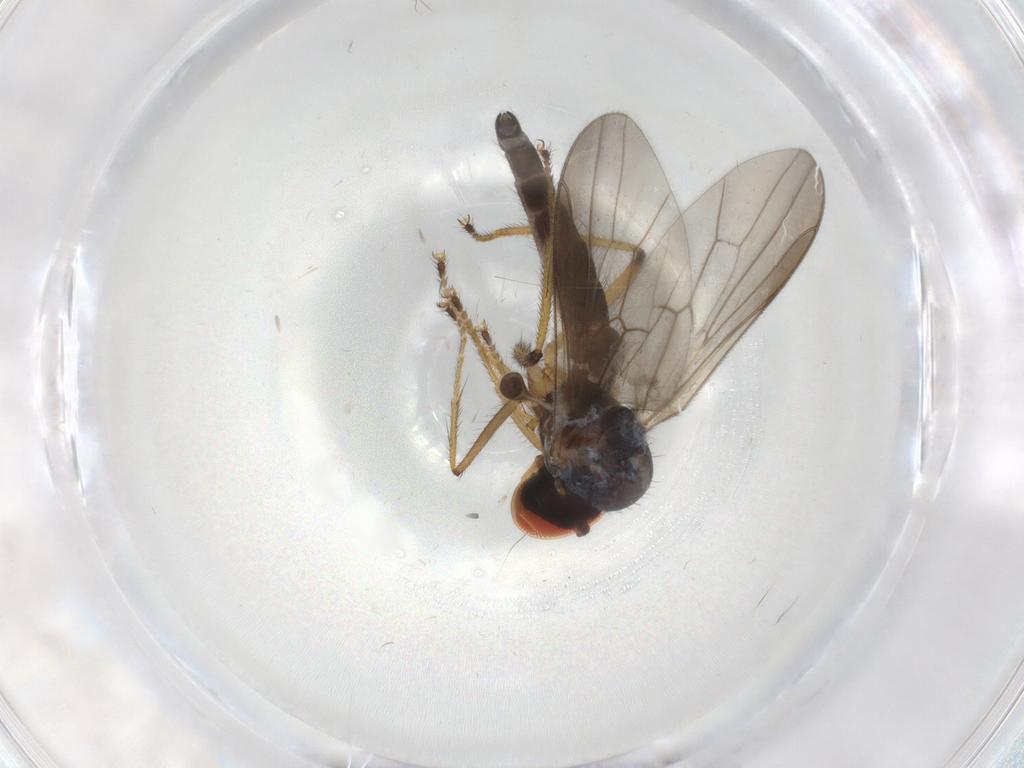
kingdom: Animalia
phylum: Arthropoda
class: Insecta
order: Diptera
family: Hybotidae
